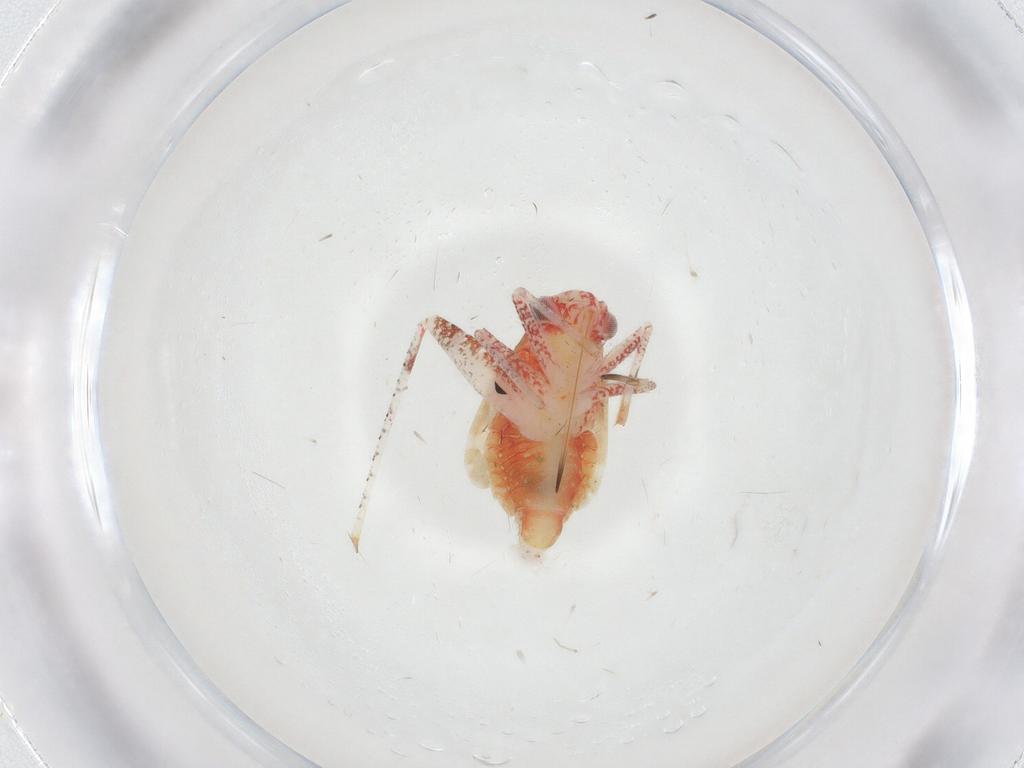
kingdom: Animalia
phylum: Arthropoda
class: Insecta
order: Hemiptera
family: Miridae
